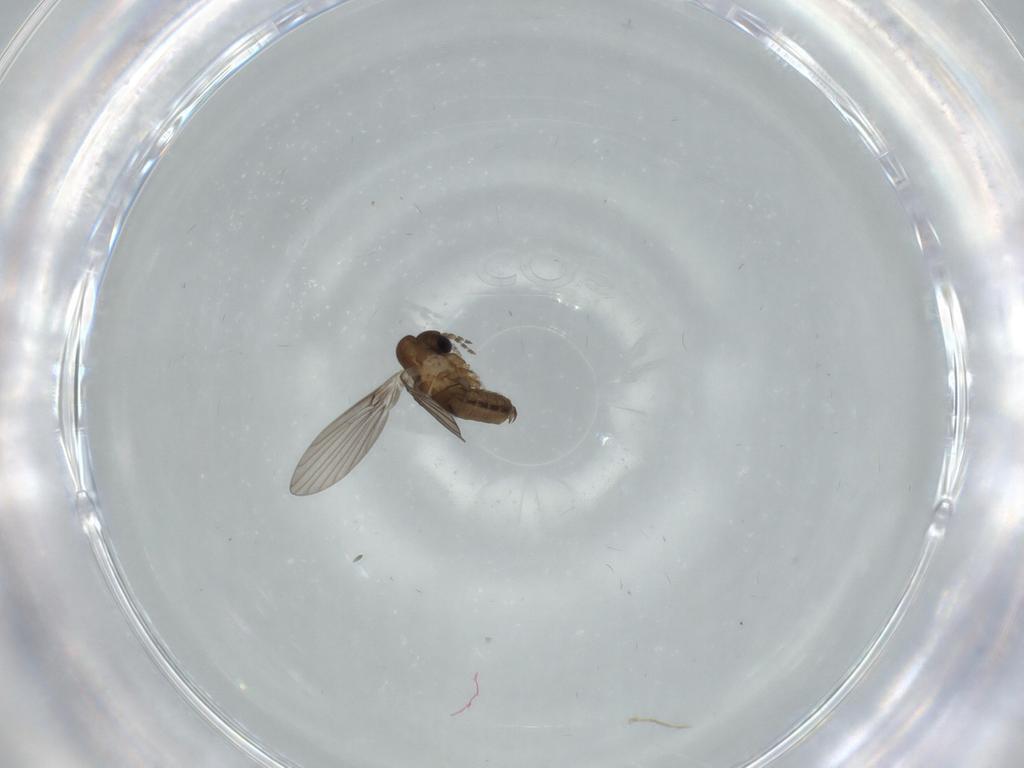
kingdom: Animalia
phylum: Arthropoda
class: Insecta
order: Diptera
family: Psychodidae
